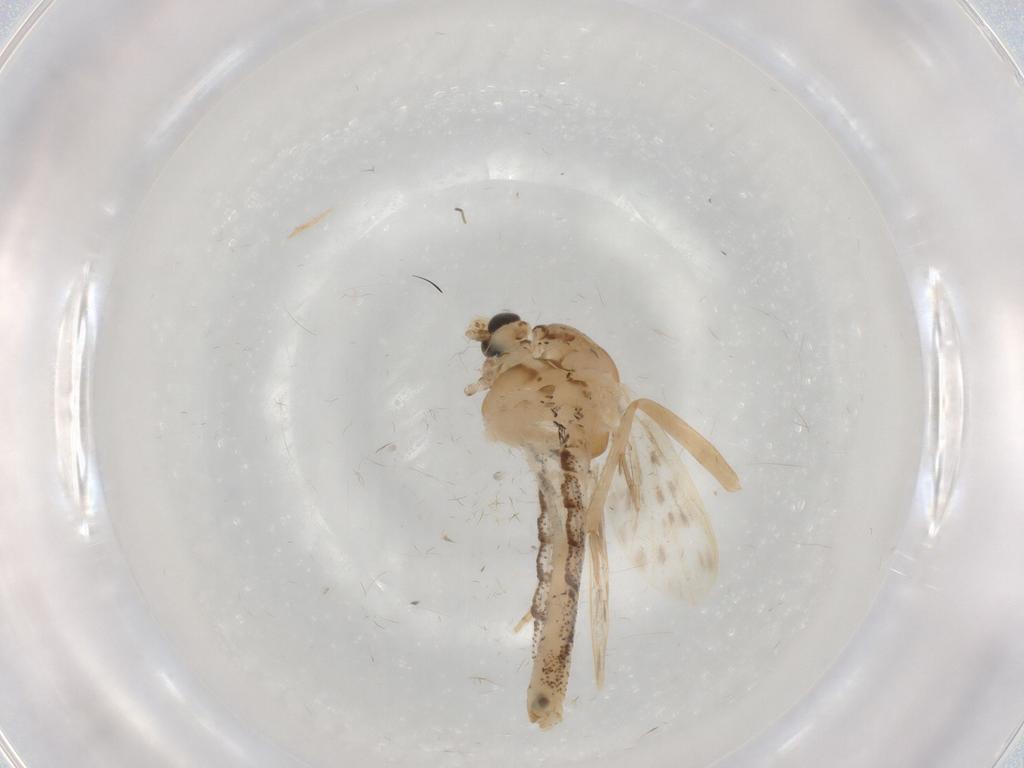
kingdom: Animalia
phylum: Arthropoda
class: Insecta
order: Diptera
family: Chaoboridae
